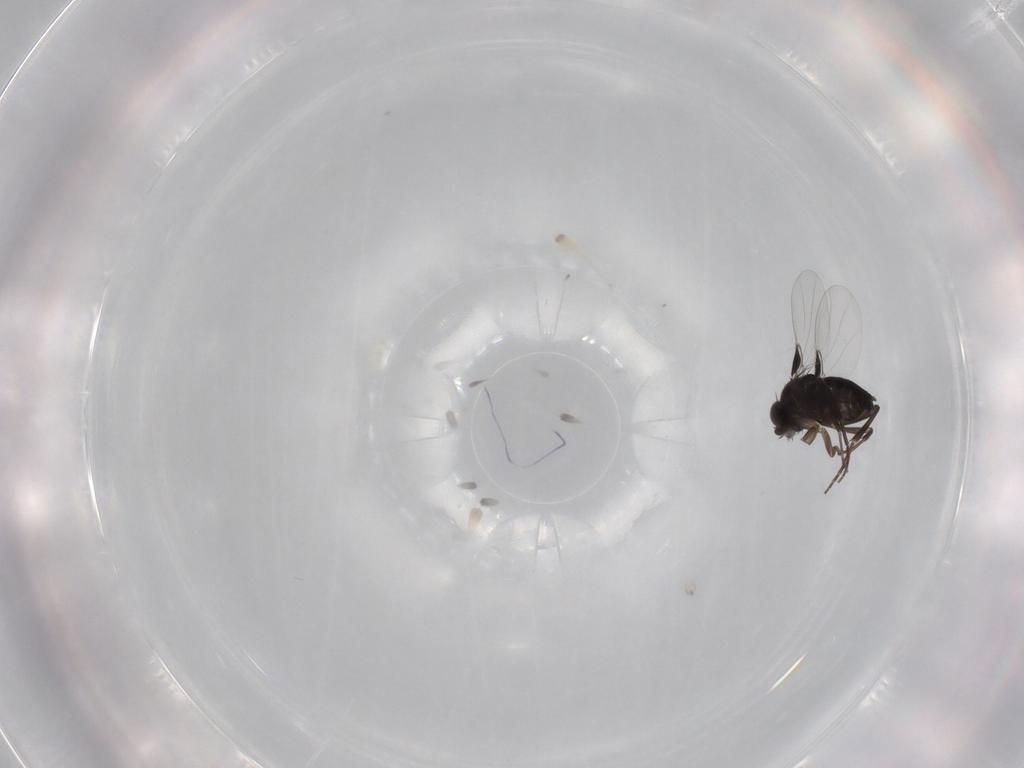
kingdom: Animalia
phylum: Arthropoda
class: Insecta
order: Diptera
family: Phoridae
